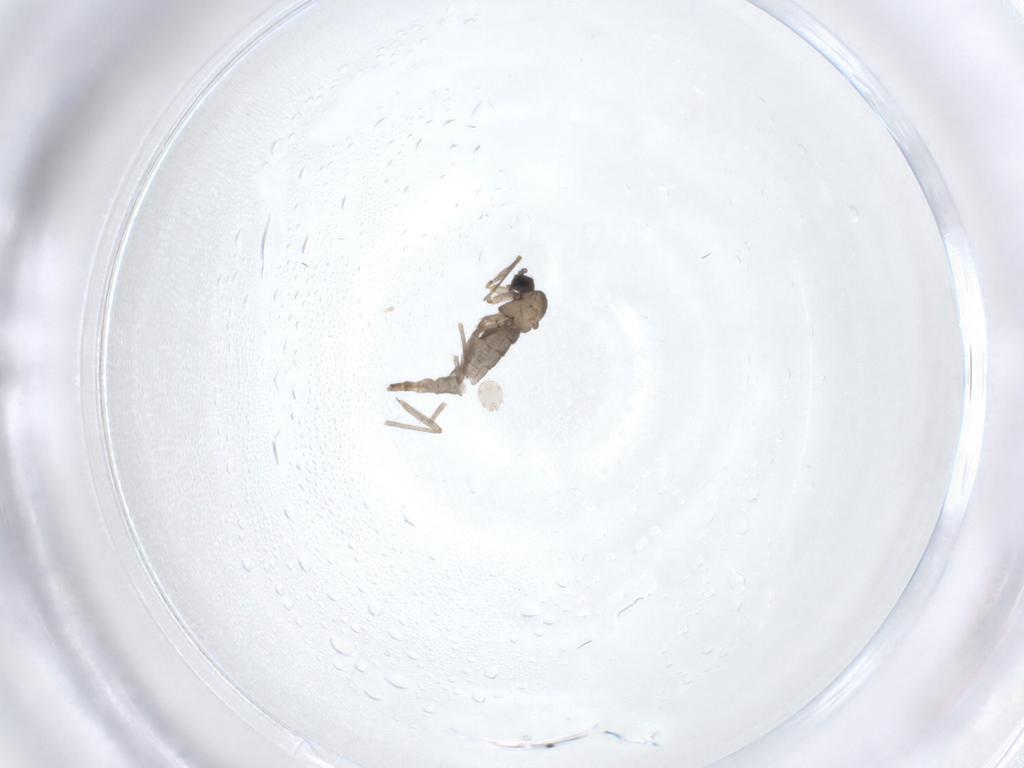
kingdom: Animalia
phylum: Arthropoda
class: Insecta
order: Diptera
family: Sciaridae
